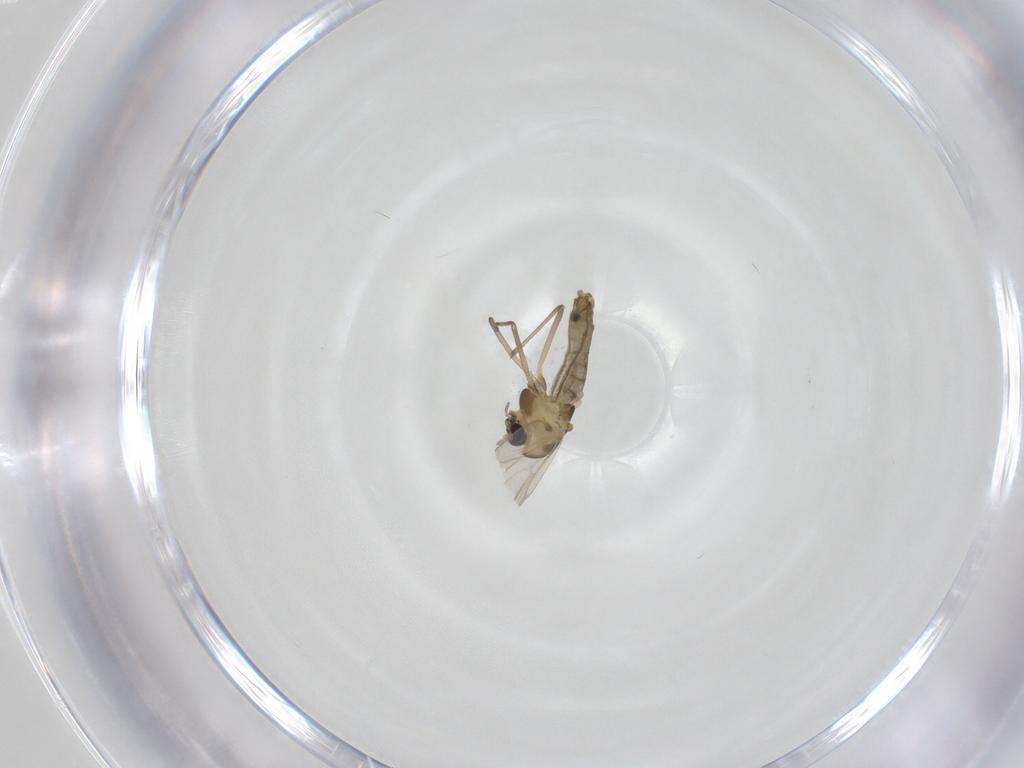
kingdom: Animalia
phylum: Arthropoda
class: Insecta
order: Diptera
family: Chironomidae
